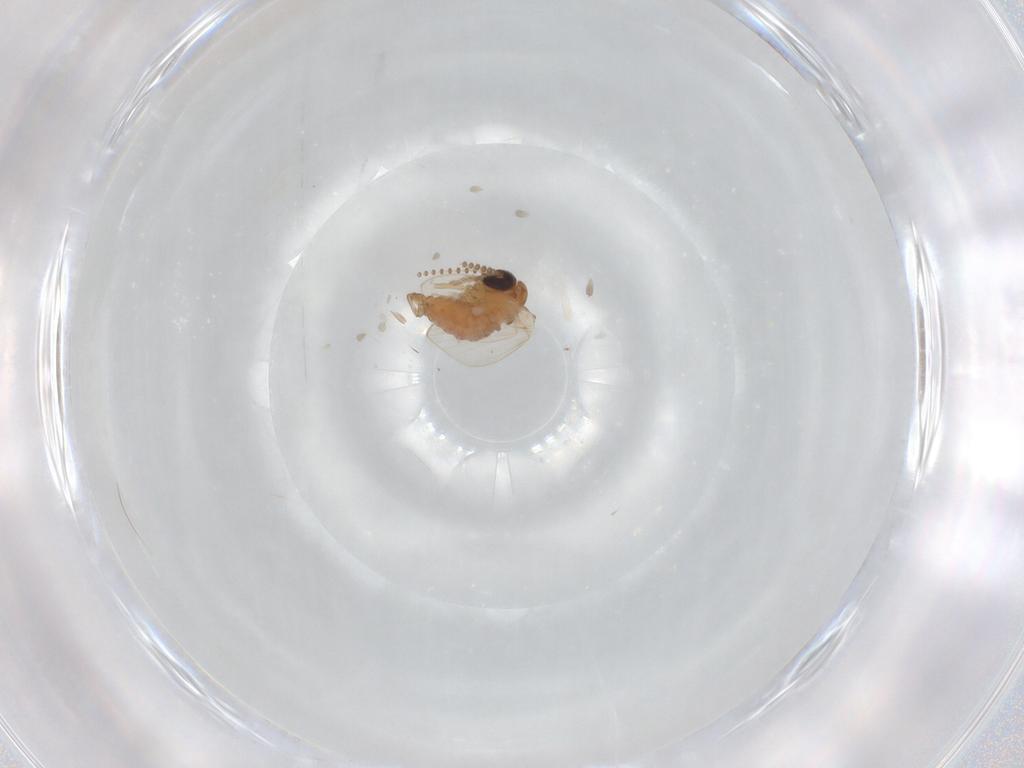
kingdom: Animalia
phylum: Arthropoda
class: Insecta
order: Diptera
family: Psychodidae
